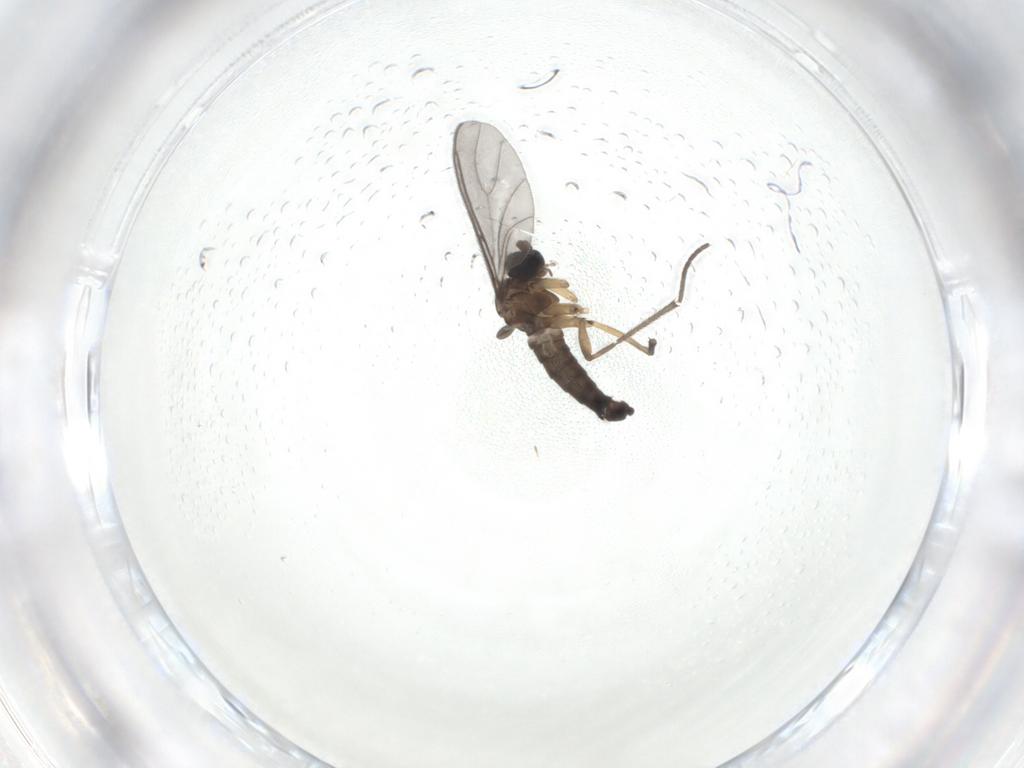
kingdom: Animalia
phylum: Arthropoda
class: Insecta
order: Diptera
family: Sciaridae
